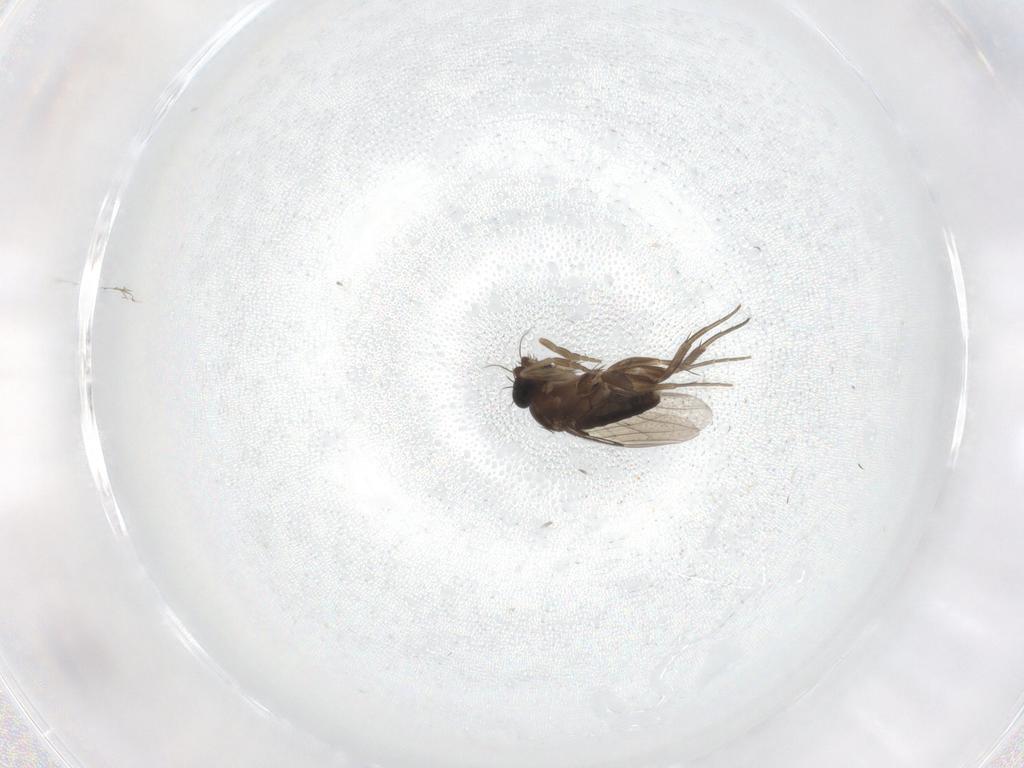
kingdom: Animalia
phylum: Arthropoda
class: Insecta
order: Diptera
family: Phoridae
